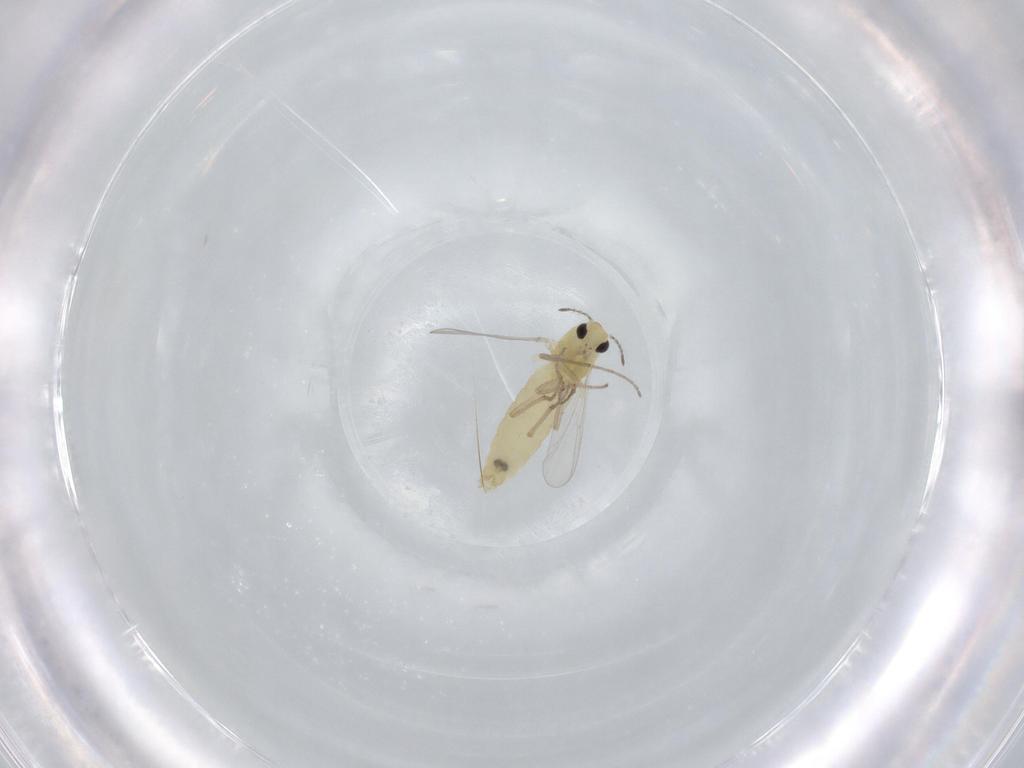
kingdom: Animalia
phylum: Arthropoda
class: Insecta
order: Diptera
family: Chironomidae
